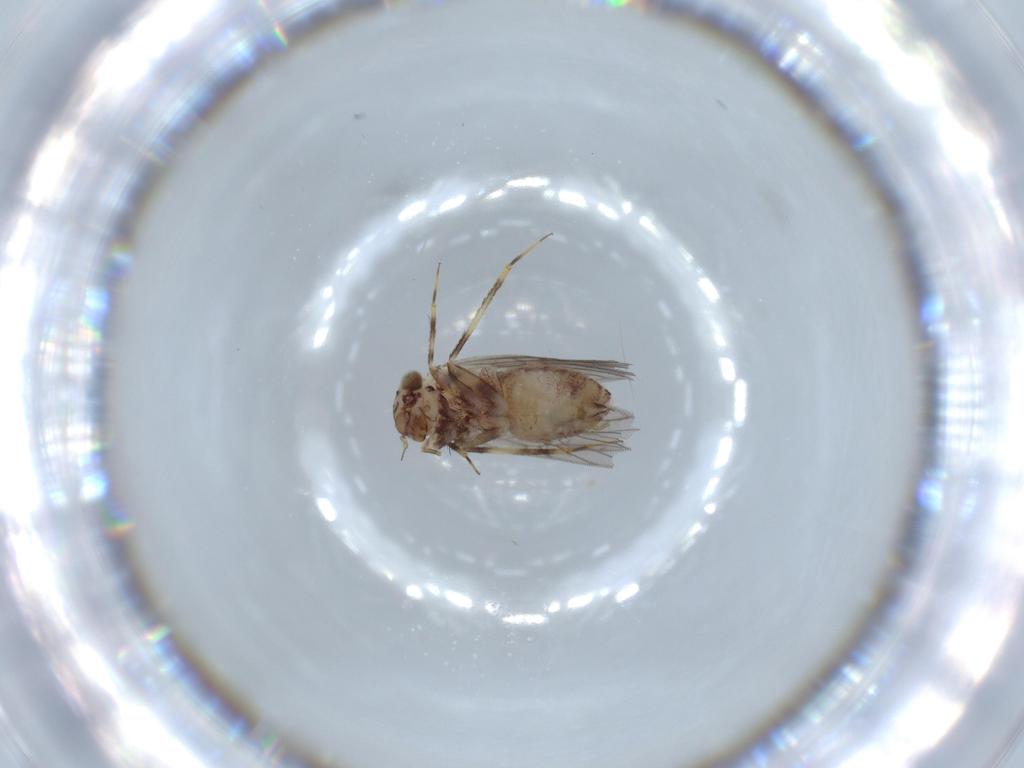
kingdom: Animalia
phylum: Arthropoda
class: Insecta
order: Psocodea
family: Lepidopsocidae
